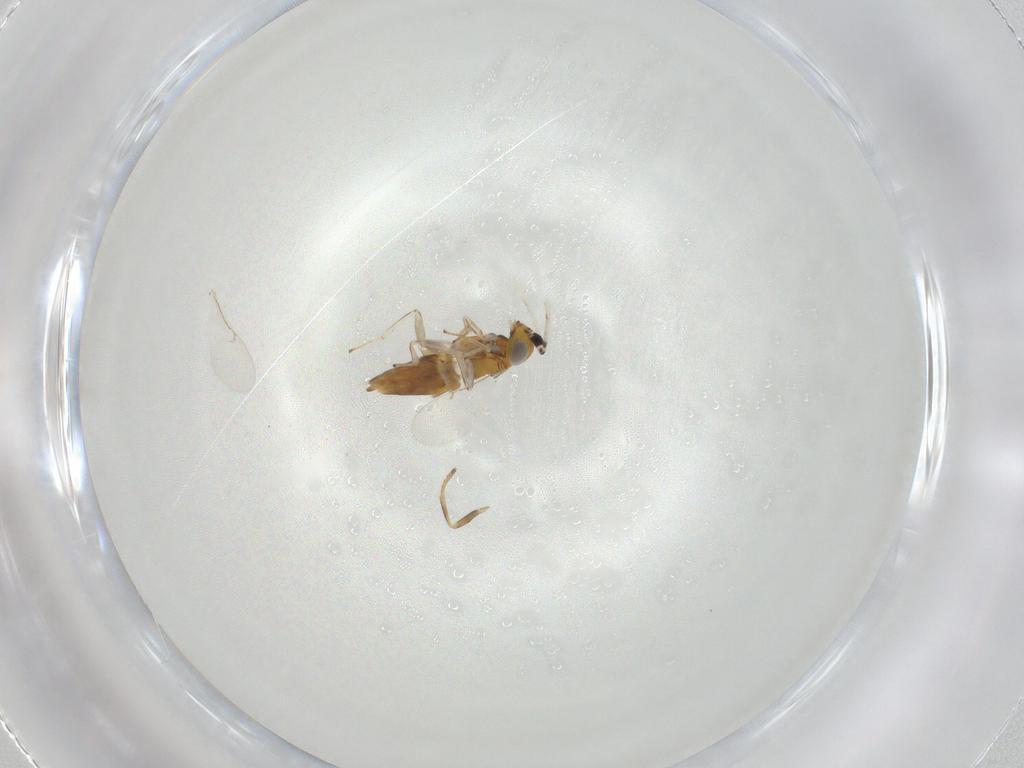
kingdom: Animalia
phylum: Arthropoda
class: Insecta
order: Diptera
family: Chloropidae
